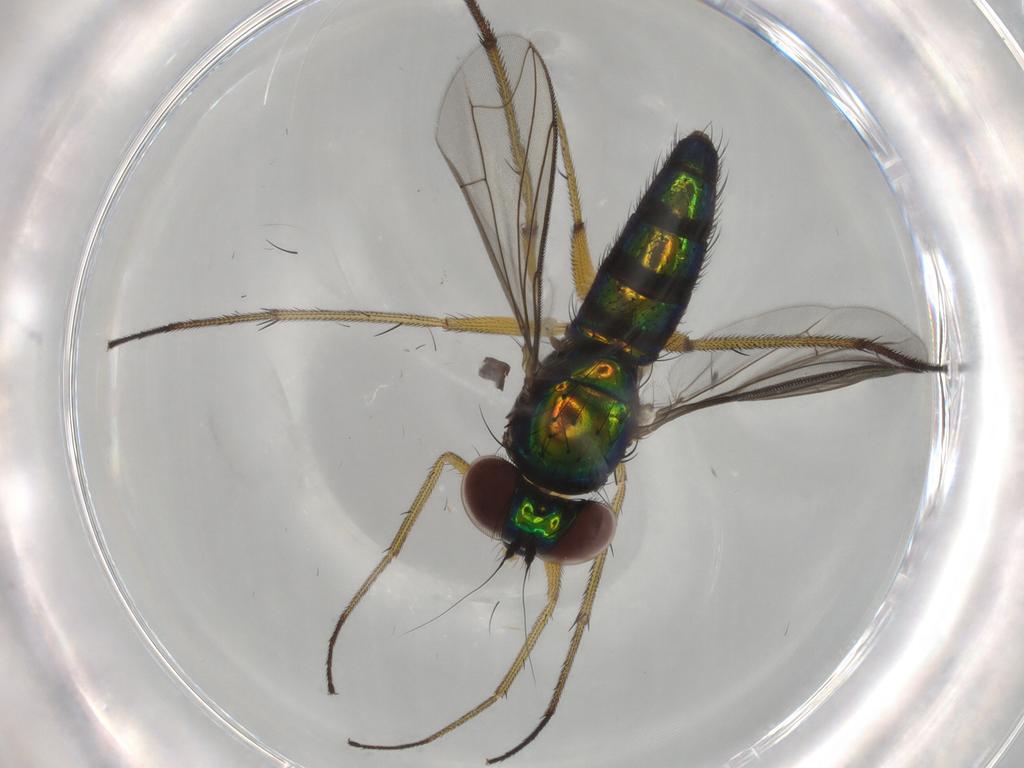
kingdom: Animalia
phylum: Arthropoda
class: Insecta
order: Diptera
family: Dolichopodidae
